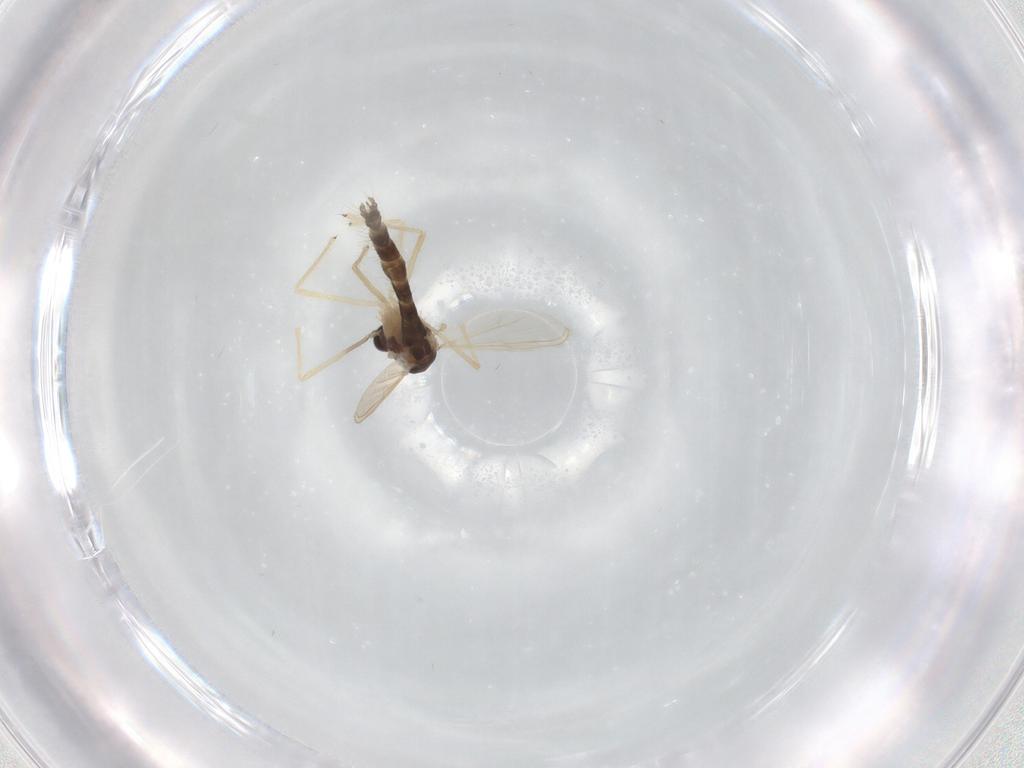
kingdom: Animalia
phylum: Arthropoda
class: Insecta
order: Diptera
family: Chironomidae
